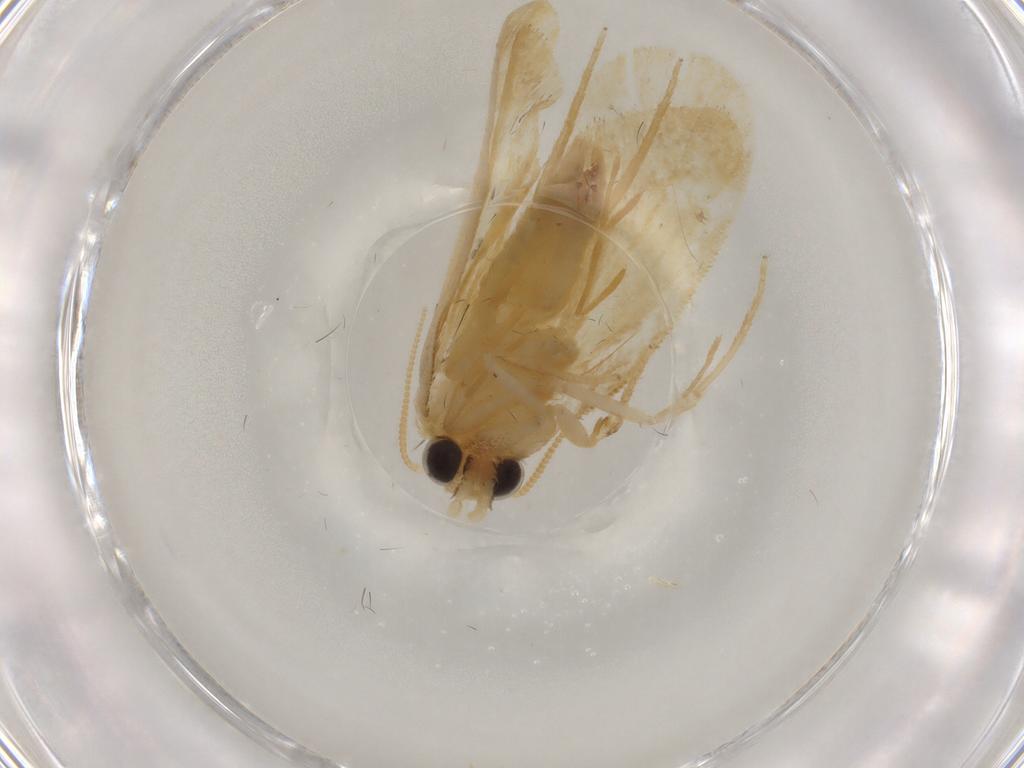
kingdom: Animalia
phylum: Arthropoda
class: Insecta
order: Lepidoptera
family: Psychidae
